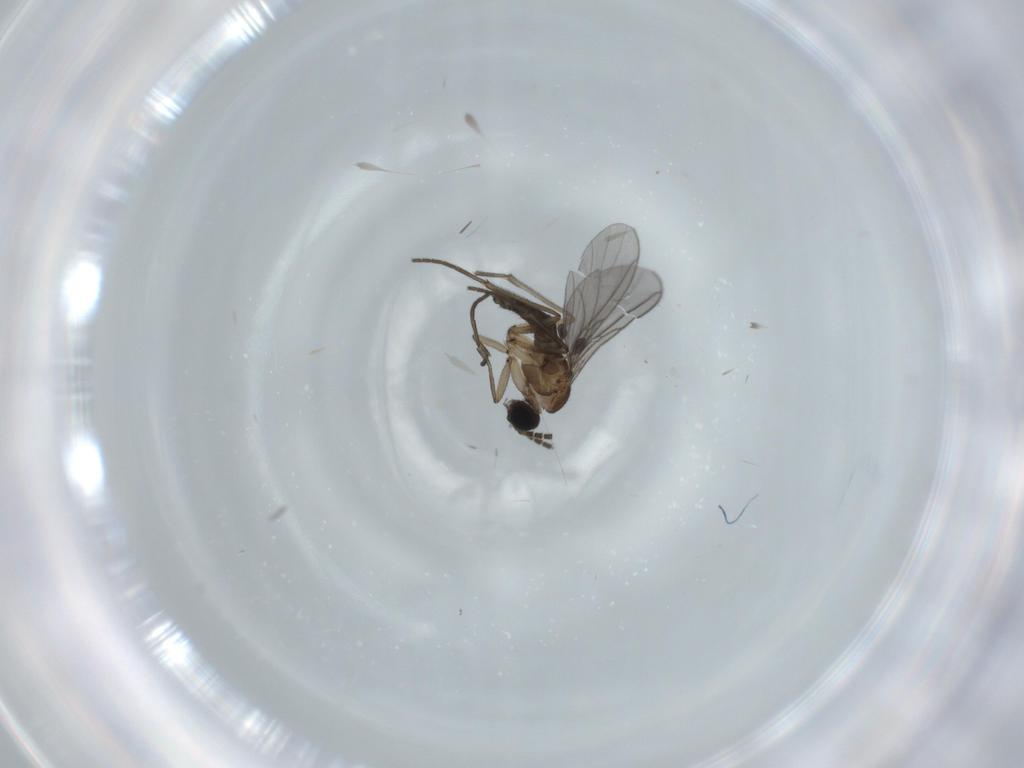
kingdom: Animalia
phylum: Arthropoda
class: Insecta
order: Diptera
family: Sciaridae
